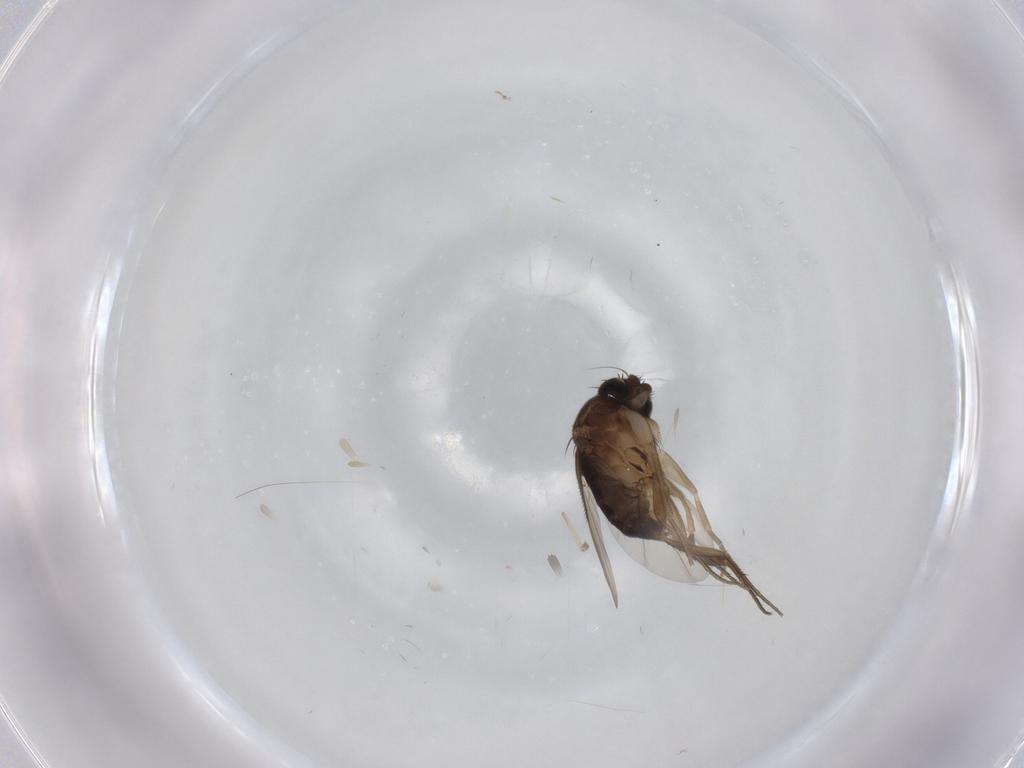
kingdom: Animalia
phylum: Arthropoda
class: Insecta
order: Diptera
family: Phoridae
